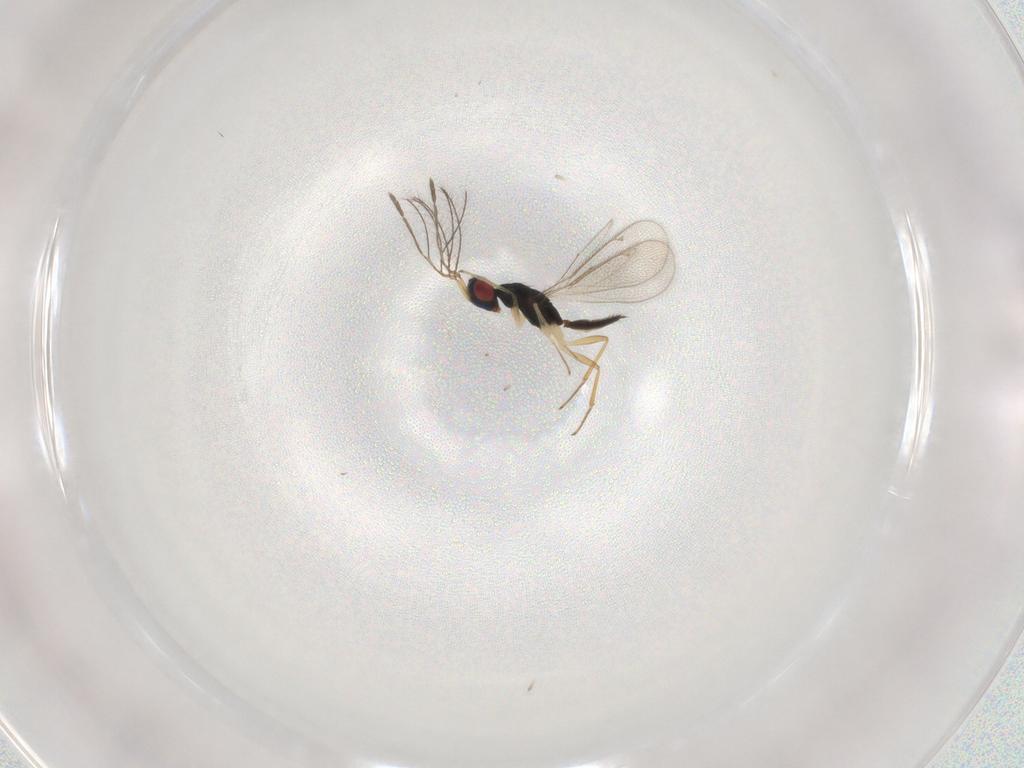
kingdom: Animalia
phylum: Arthropoda
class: Insecta
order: Hymenoptera
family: Eulophidae
